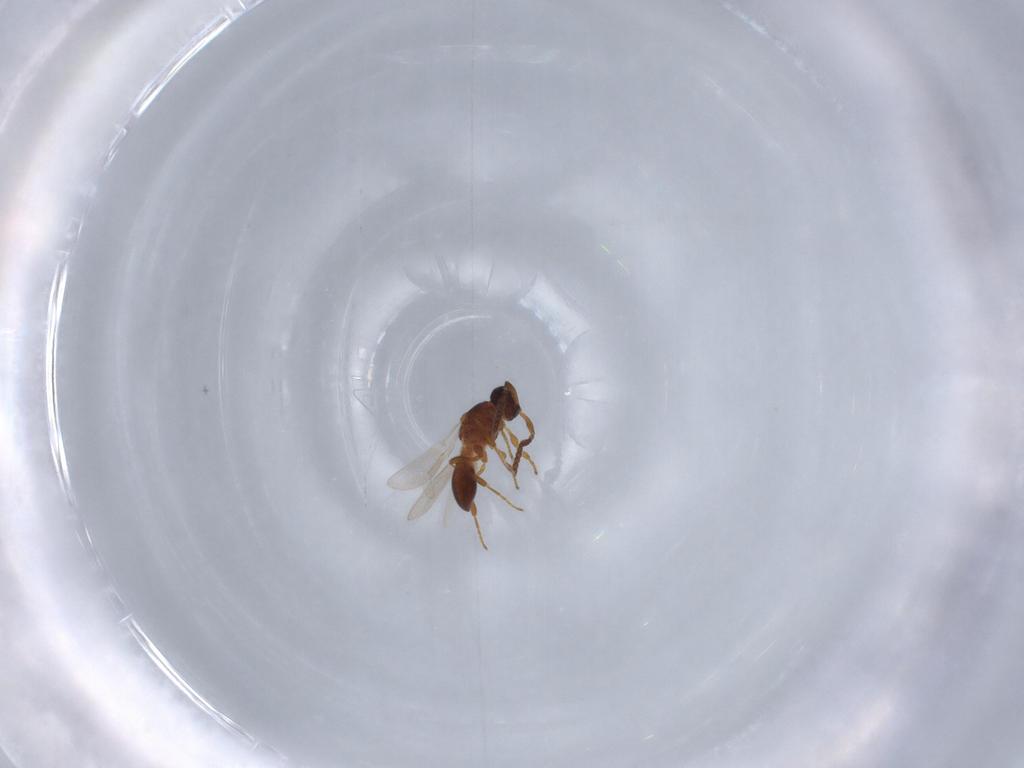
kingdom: Animalia
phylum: Arthropoda
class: Insecta
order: Hymenoptera
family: Platygastridae
